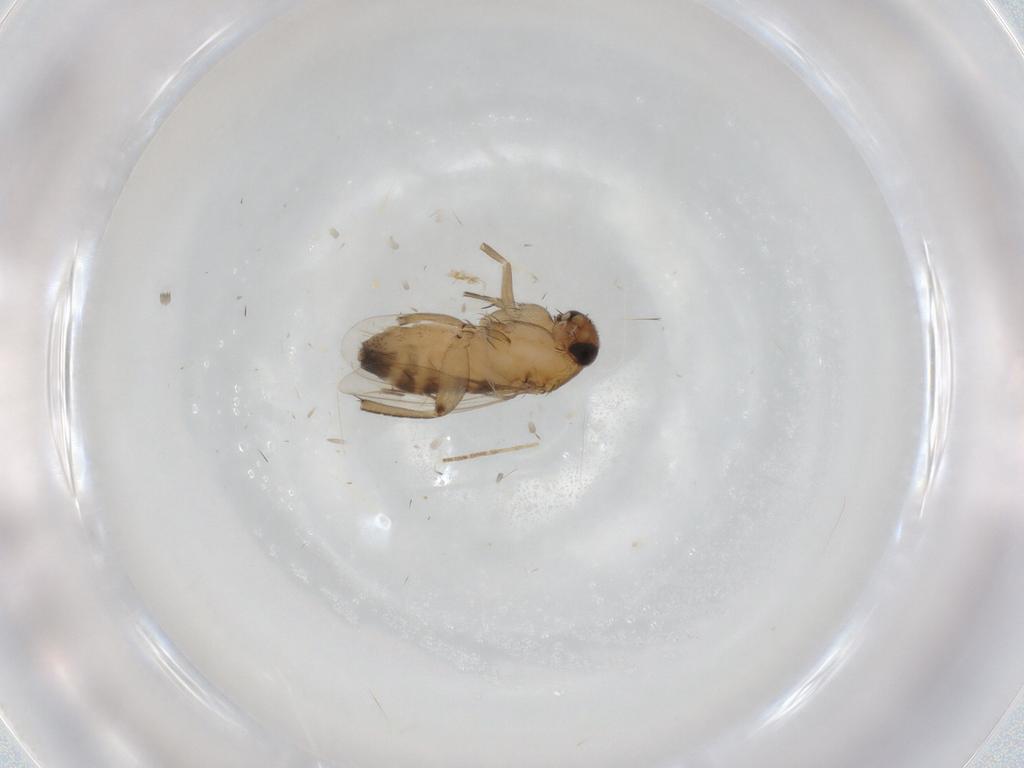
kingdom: Animalia
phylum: Arthropoda
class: Insecta
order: Diptera
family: Phoridae
